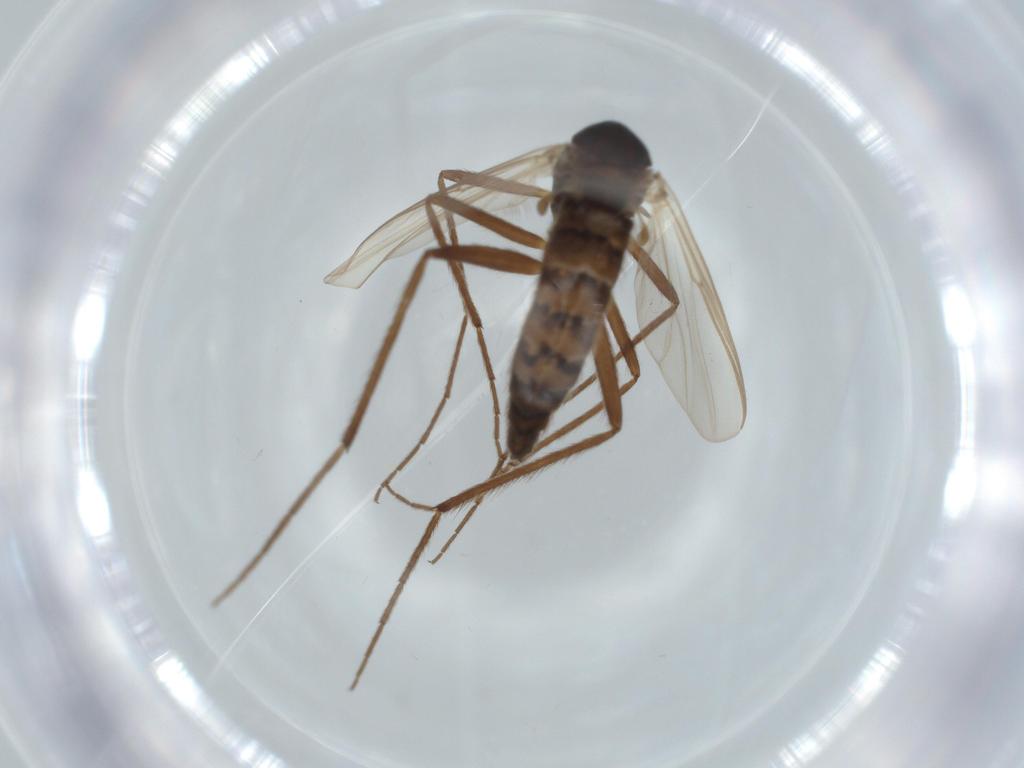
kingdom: Animalia
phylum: Arthropoda
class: Insecta
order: Diptera
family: Chironomidae
